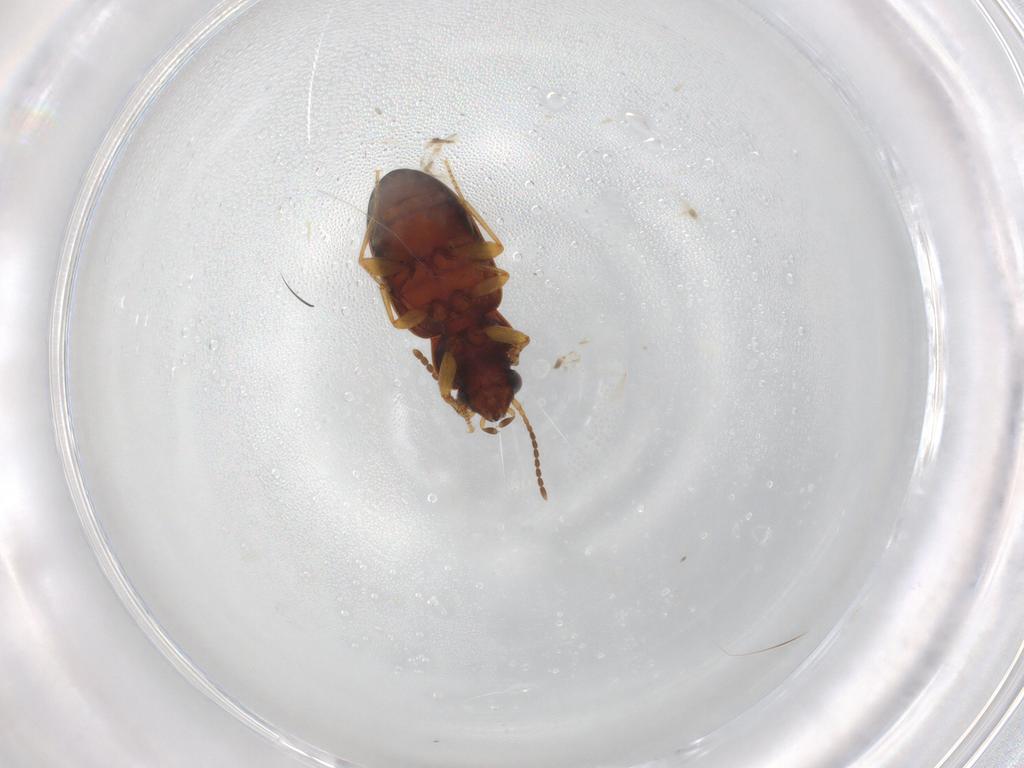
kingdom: Animalia
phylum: Arthropoda
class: Insecta
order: Coleoptera
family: Carabidae
